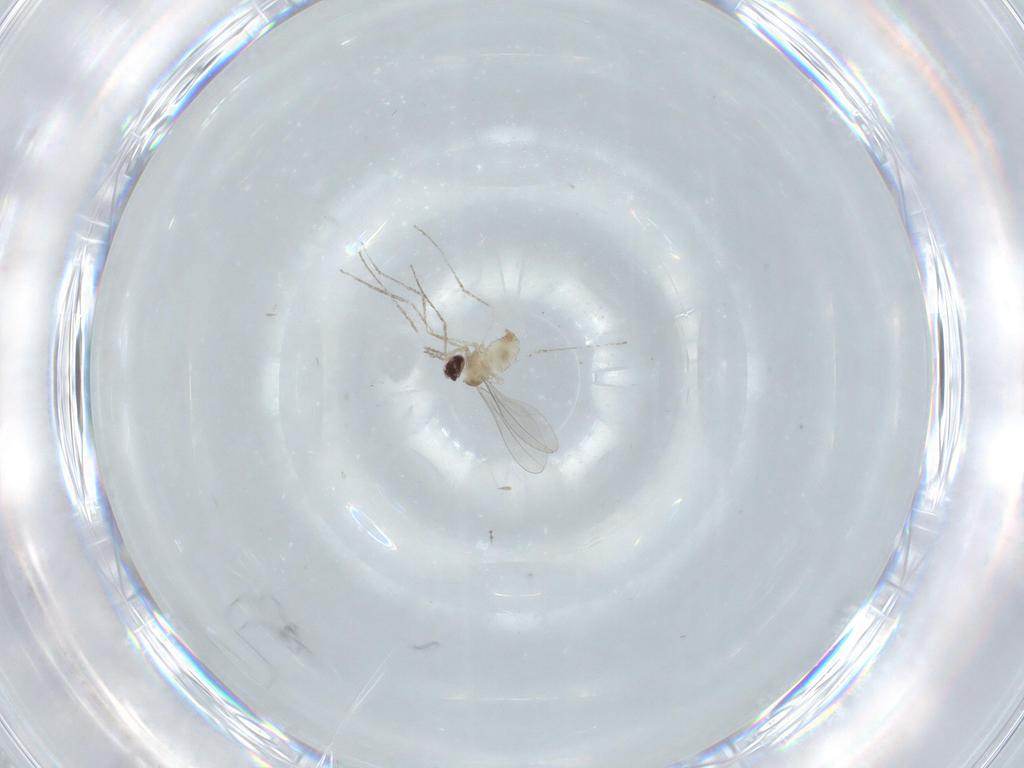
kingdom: Animalia
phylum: Arthropoda
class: Insecta
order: Diptera
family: Cecidomyiidae
